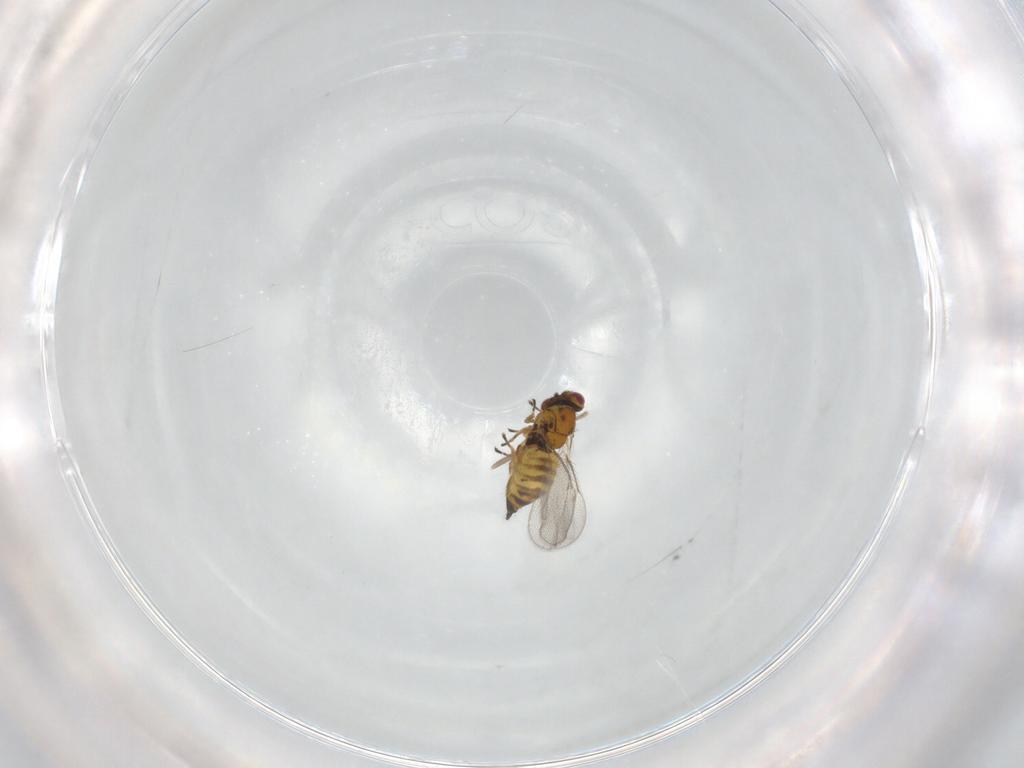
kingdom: Animalia
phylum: Arthropoda
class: Insecta
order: Hymenoptera
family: Eulophidae
